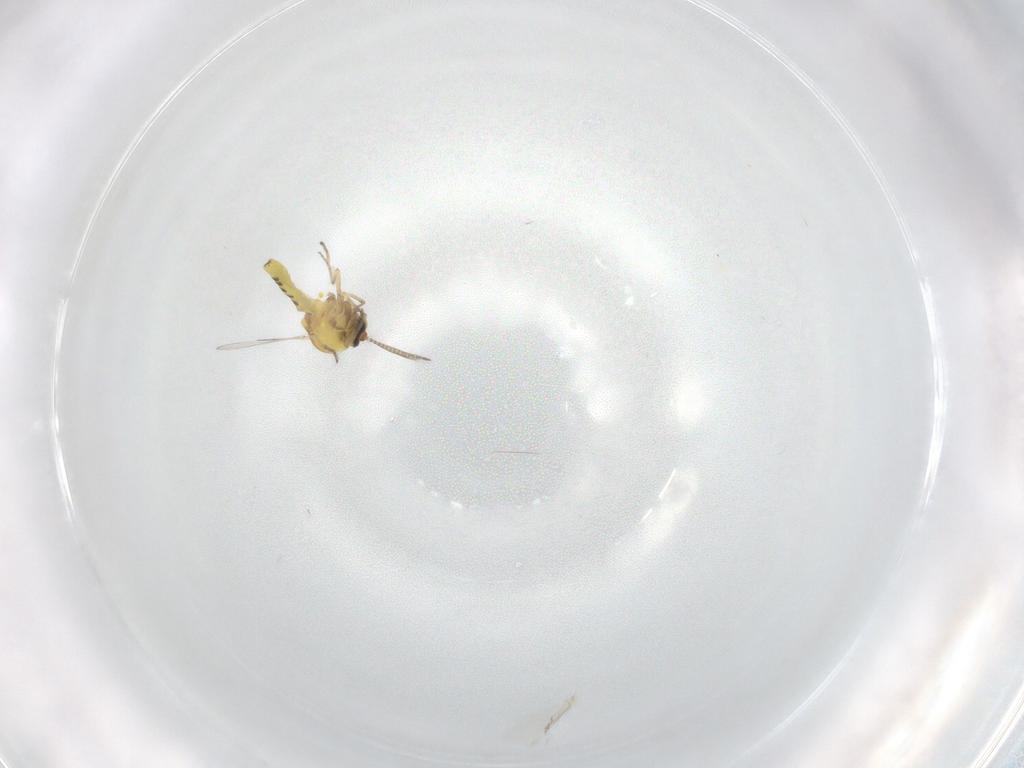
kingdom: Animalia
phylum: Arthropoda
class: Insecta
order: Diptera
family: Ceratopogonidae
